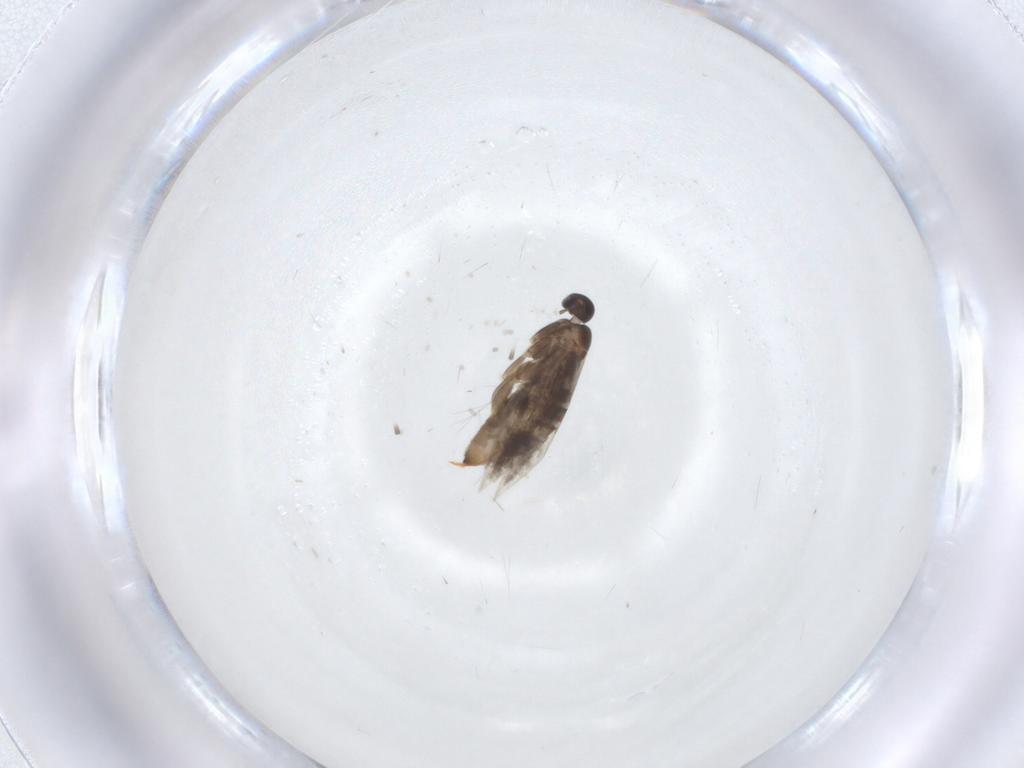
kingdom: Animalia
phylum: Arthropoda
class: Insecta
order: Lepidoptera
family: Heliozelidae
